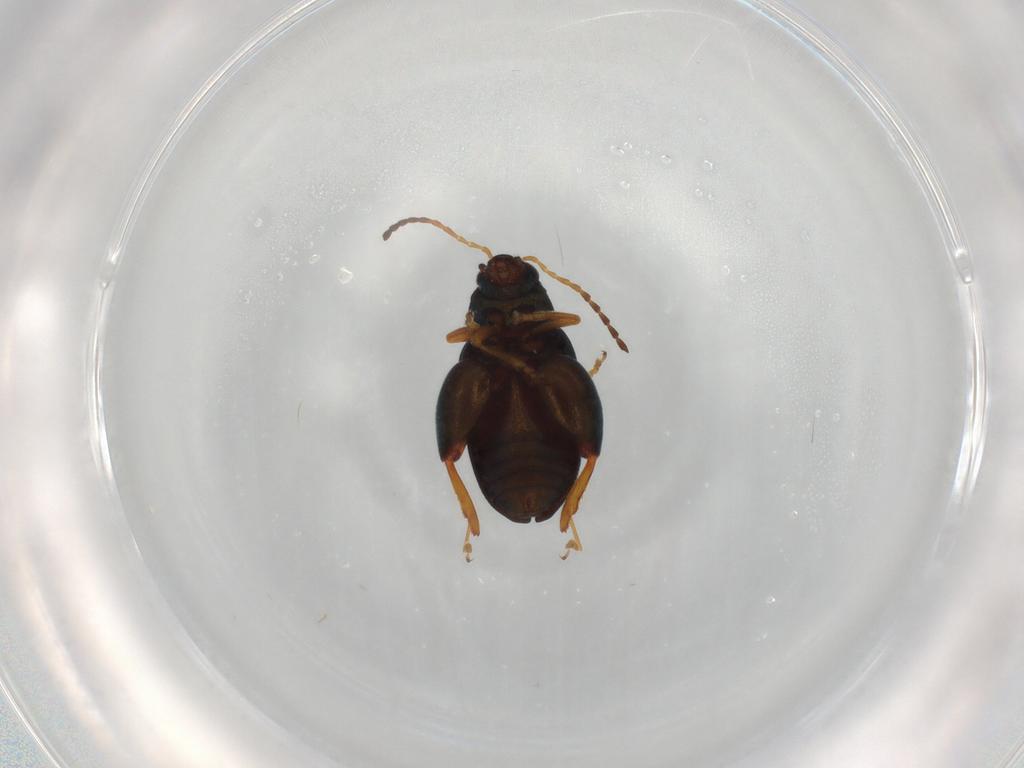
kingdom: Animalia
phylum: Arthropoda
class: Insecta
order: Coleoptera
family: Chrysomelidae
